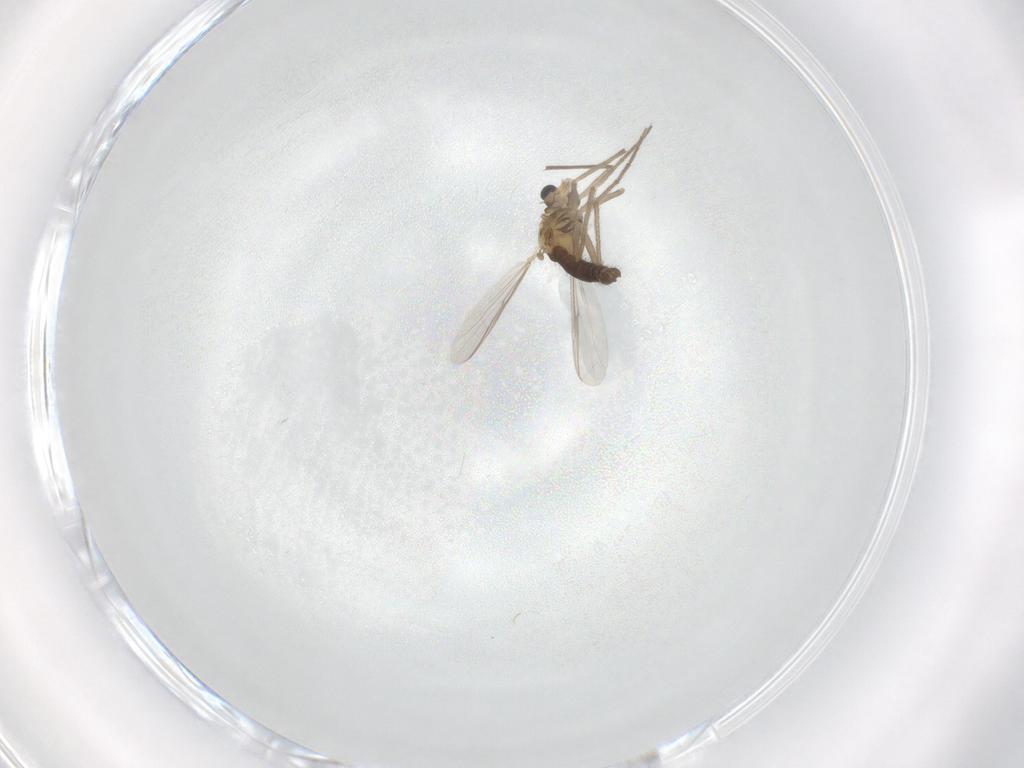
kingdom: Animalia
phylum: Arthropoda
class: Insecta
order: Diptera
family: Chironomidae
